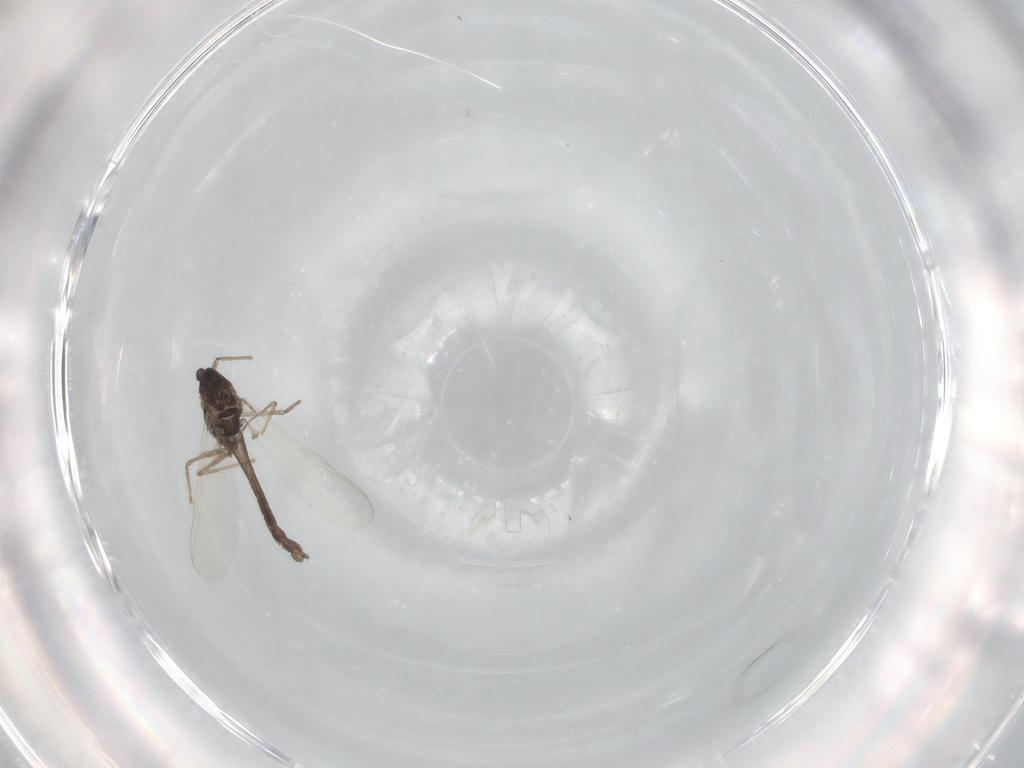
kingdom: Animalia
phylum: Arthropoda
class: Insecta
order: Diptera
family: Chironomidae
